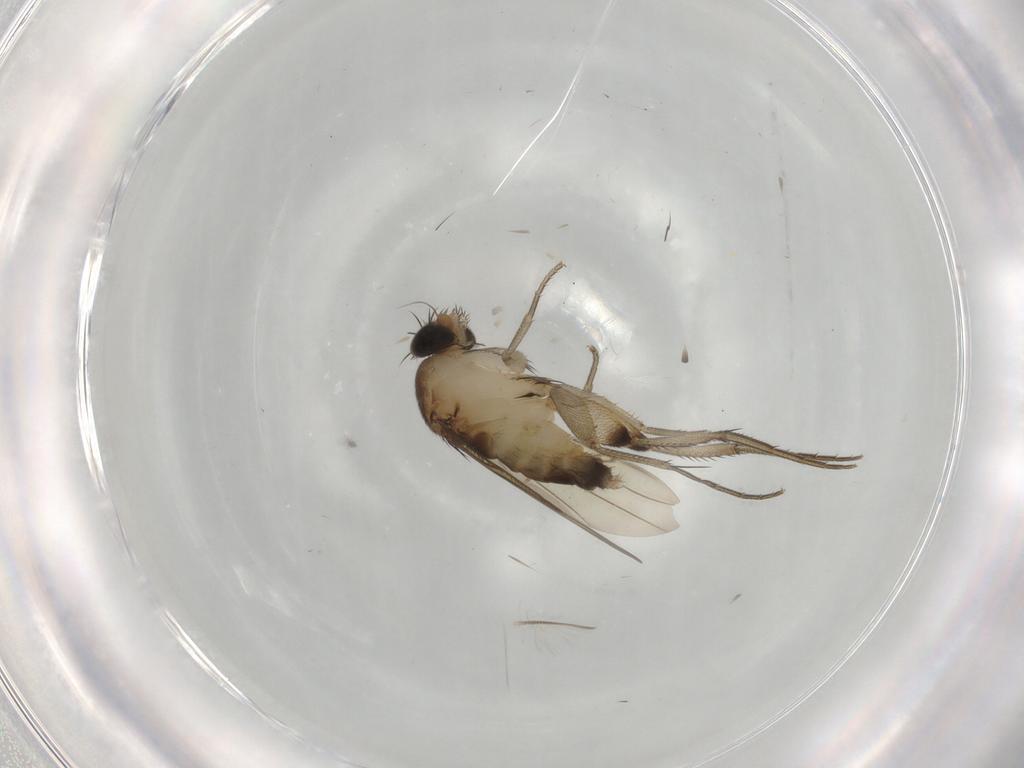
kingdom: Animalia
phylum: Arthropoda
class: Insecta
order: Diptera
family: Phoridae
